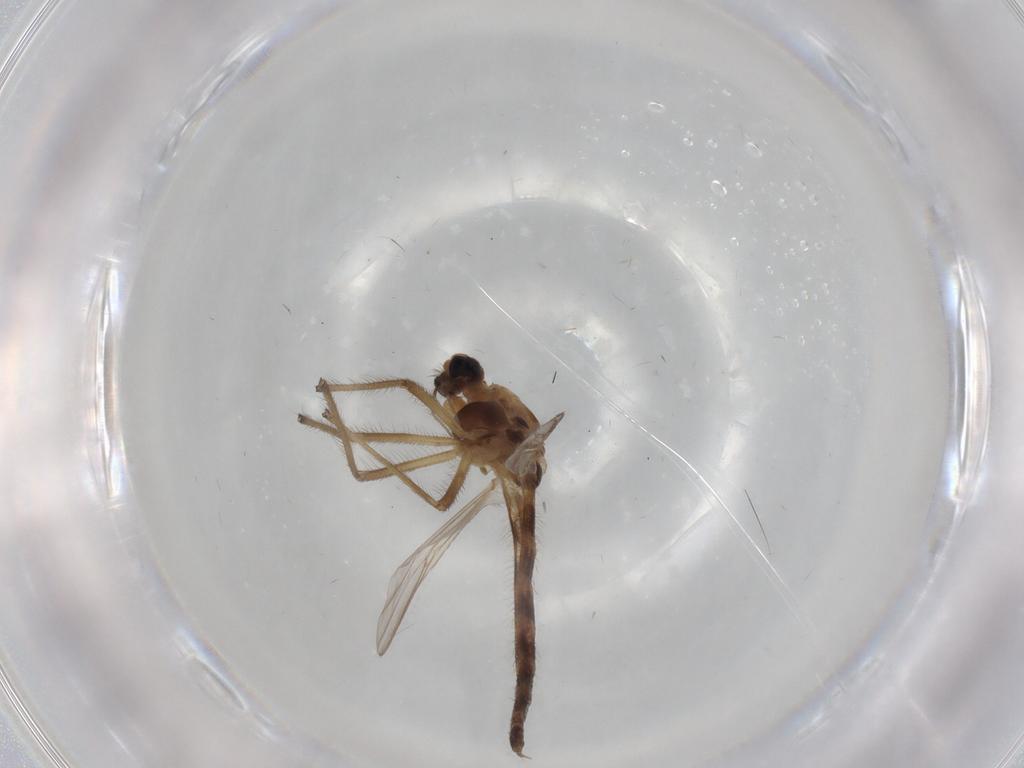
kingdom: Animalia
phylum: Arthropoda
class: Insecta
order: Diptera
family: Chironomidae
